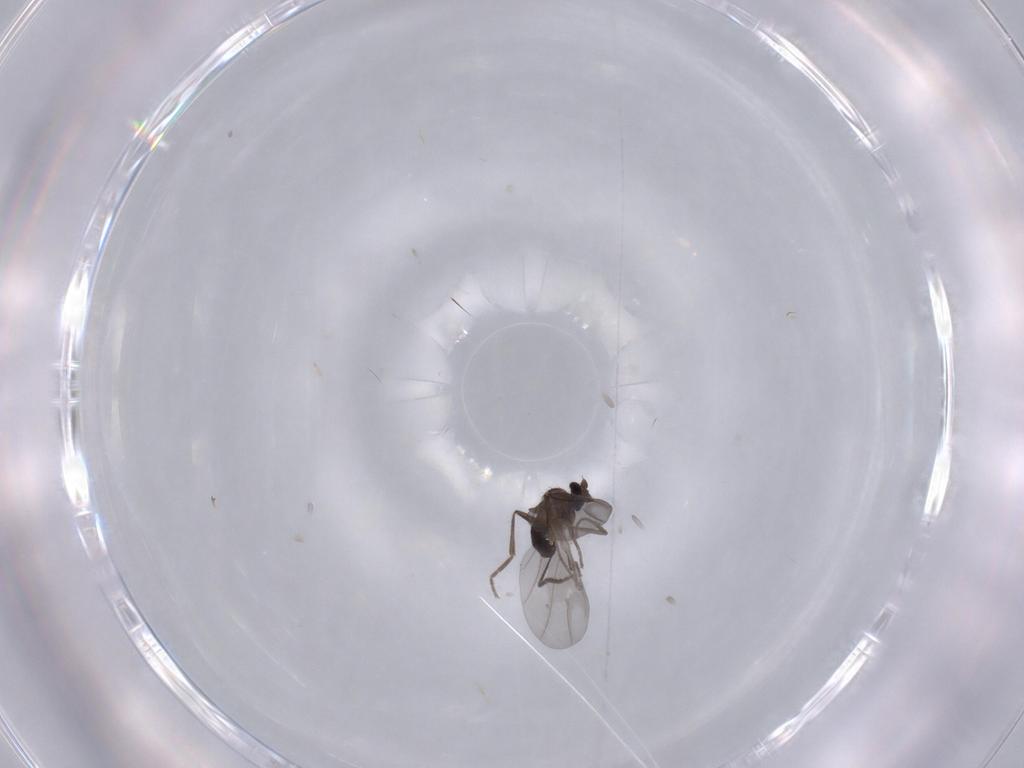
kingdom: Animalia
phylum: Arthropoda
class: Insecta
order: Diptera
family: Phoridae
